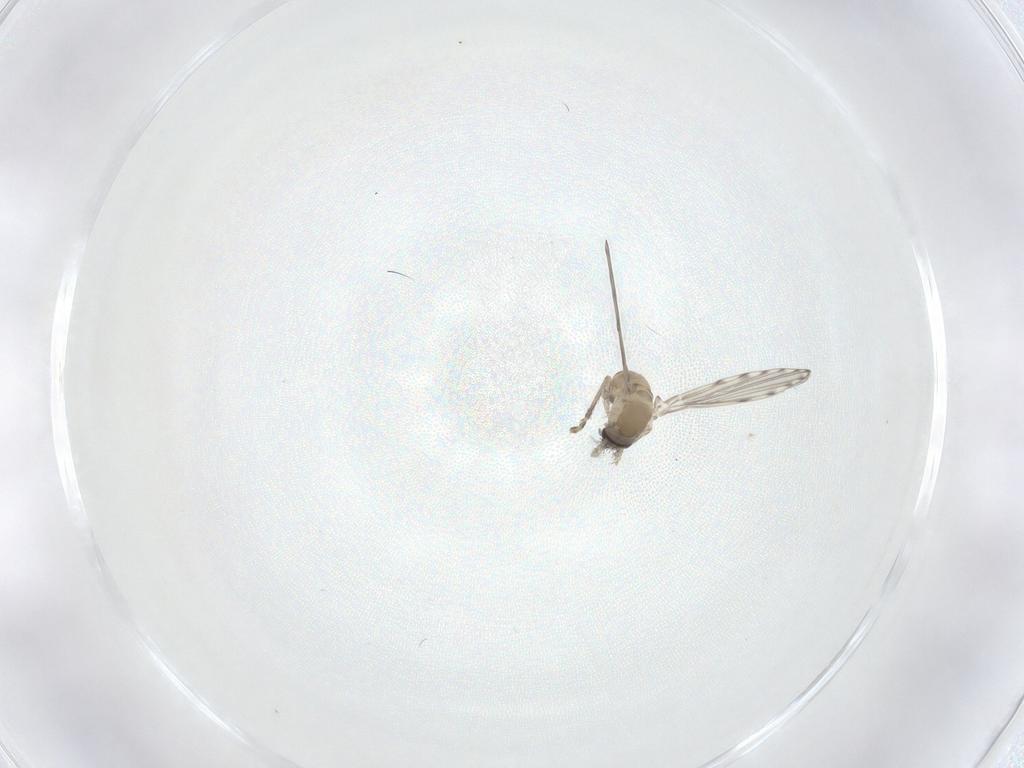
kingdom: Animalia
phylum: Arthropoda
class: Insecta
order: Diptera
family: Psychodidae
